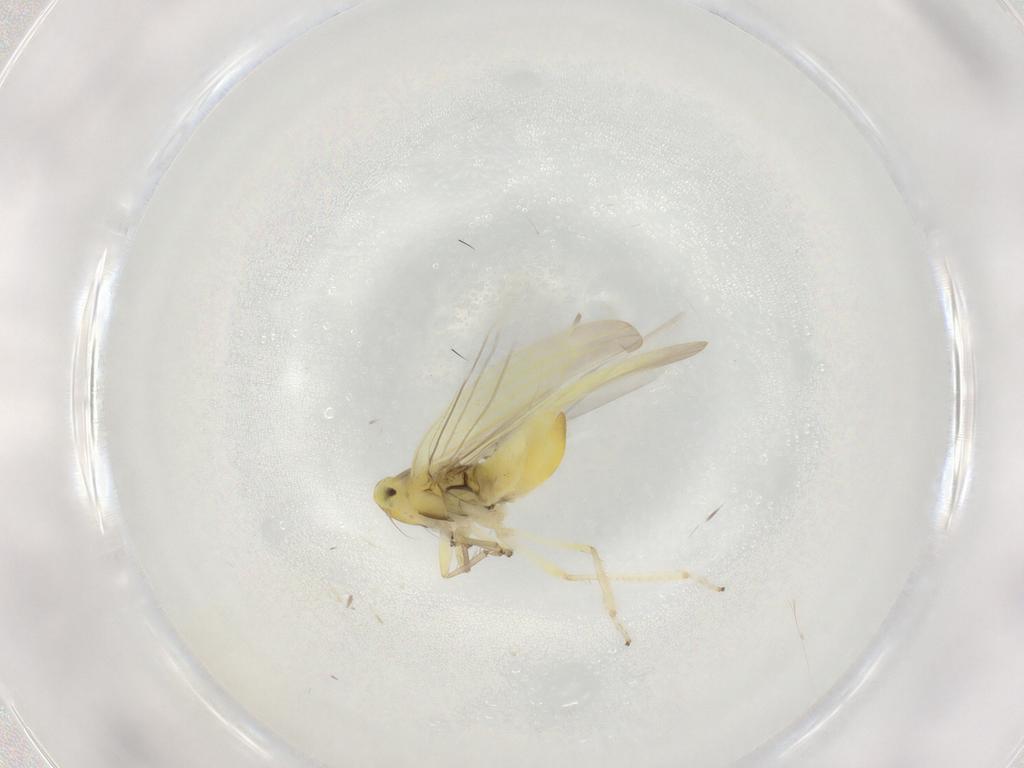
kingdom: Animalia
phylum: Arthropoda
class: Insecta
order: Hemiptera
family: Cicadellidae
